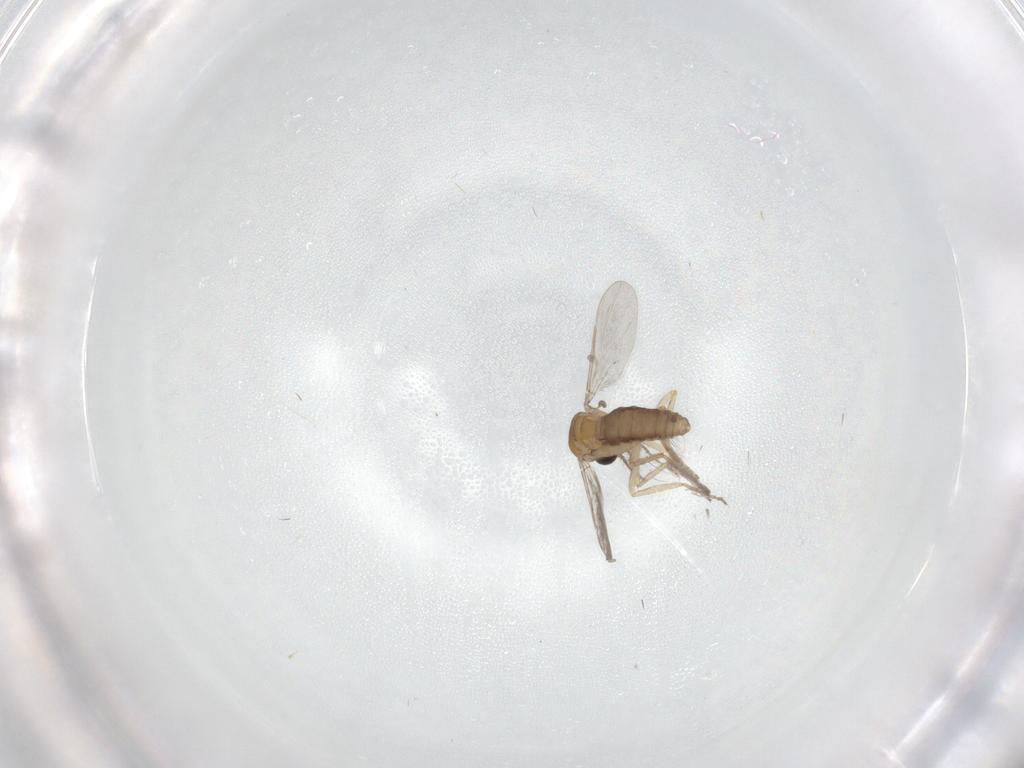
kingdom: Animalia
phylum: Arthropoda
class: Insecta
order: Diptera
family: Ceratopogonidae
